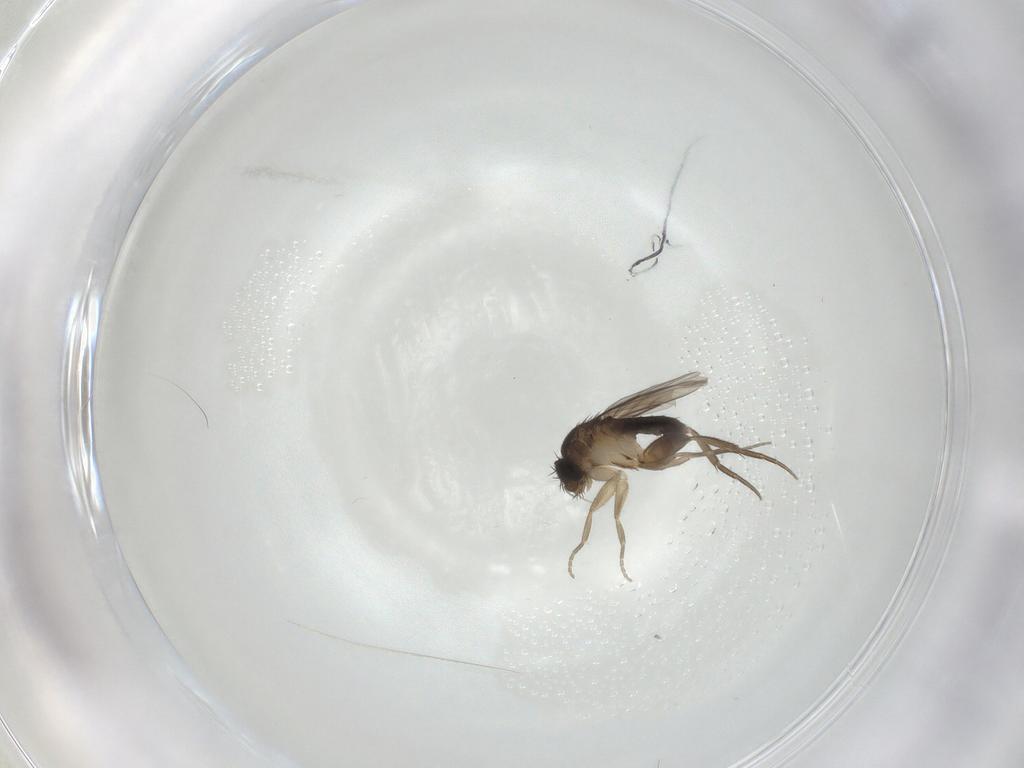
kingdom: Animalia
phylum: Arthropoda
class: Insecta
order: Diptera
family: Phoridae
